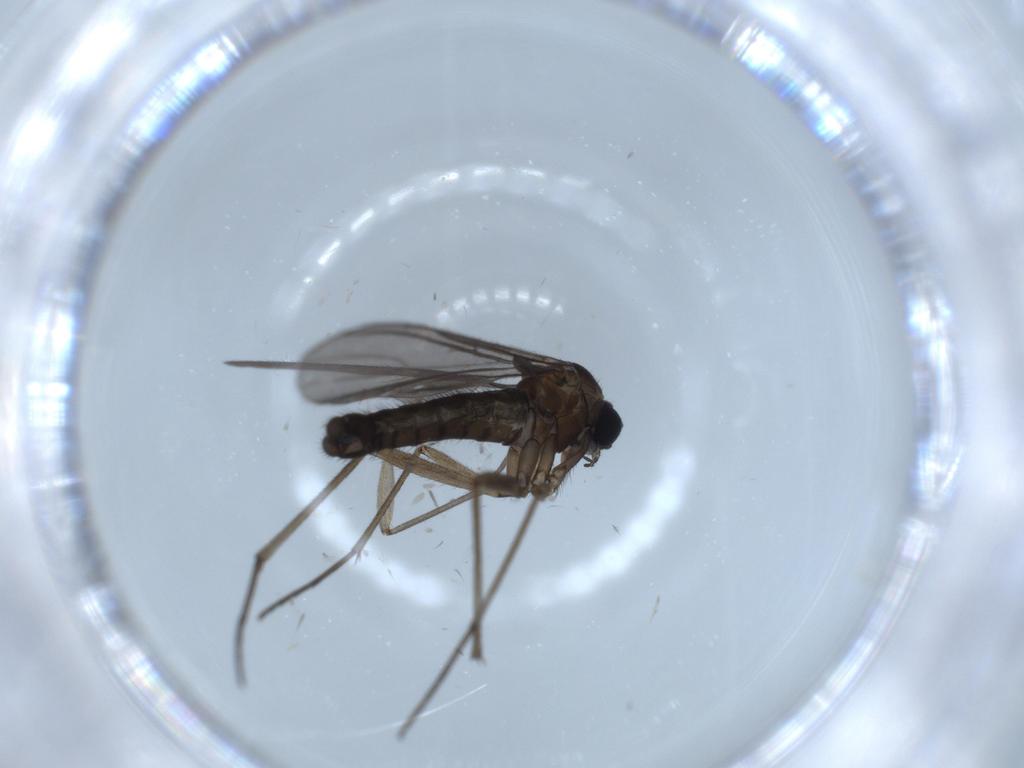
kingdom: Animalia
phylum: Arthropoda
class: Insecta
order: Diptera
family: Sciaridae
